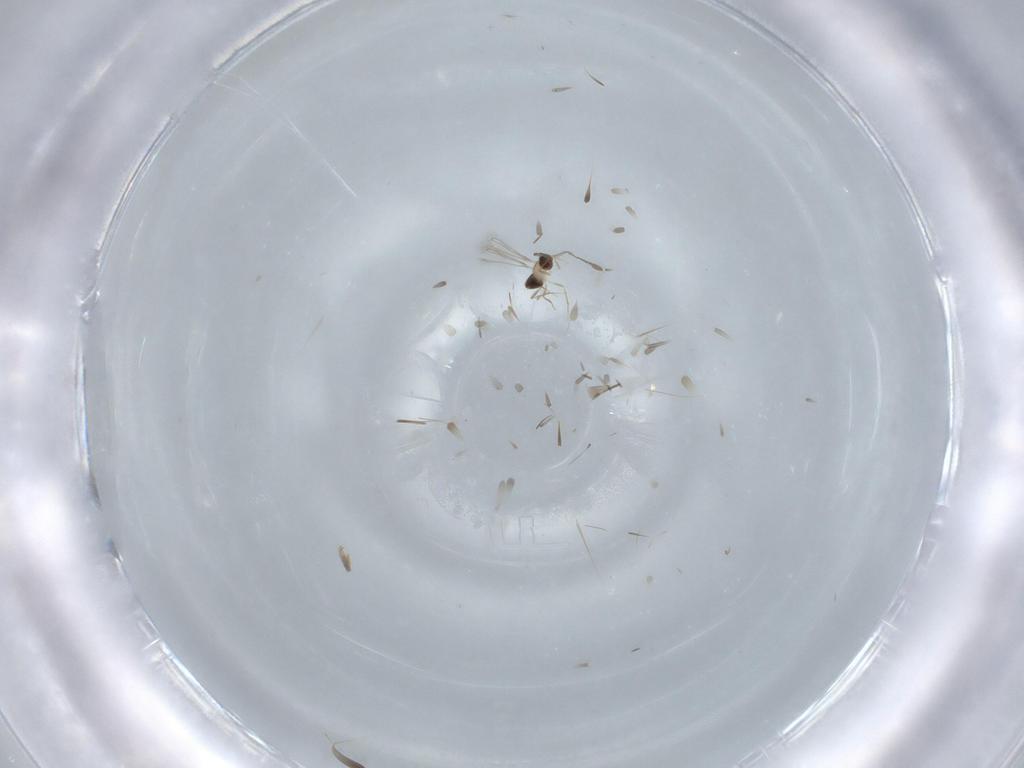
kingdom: Animalia
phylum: Arthropoda
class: Insecta
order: Hymenoptera
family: Mymaridae
